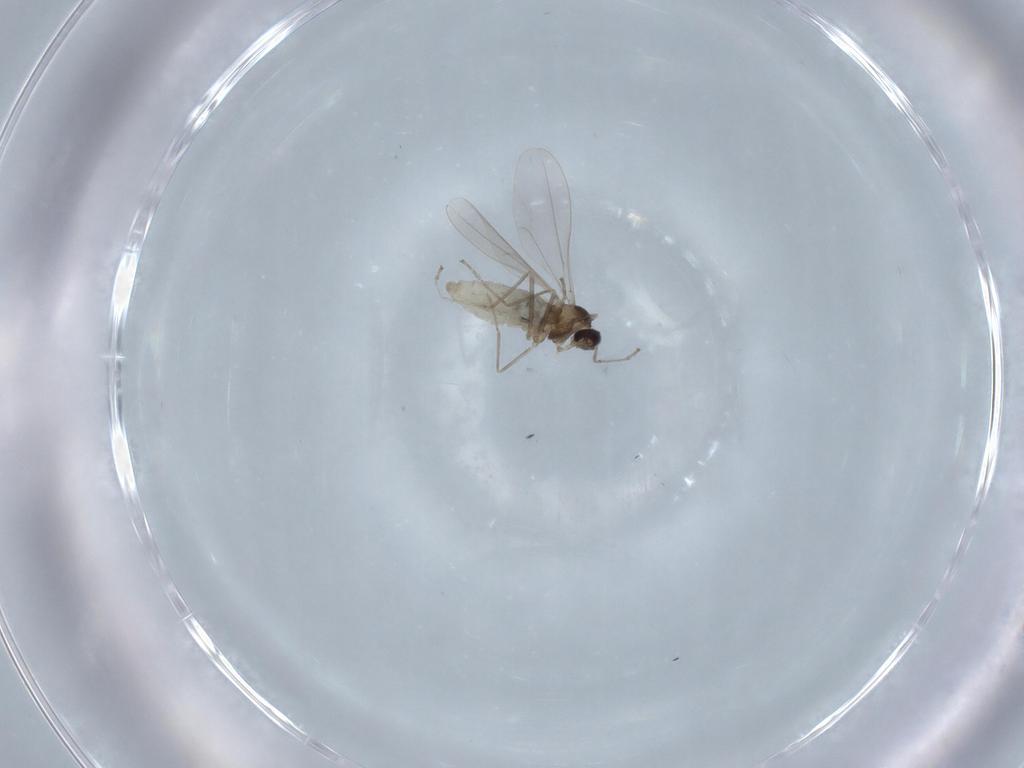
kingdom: Animalia
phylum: Arthropoda
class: Insecta
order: Diptera
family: Cecidomyiidae
